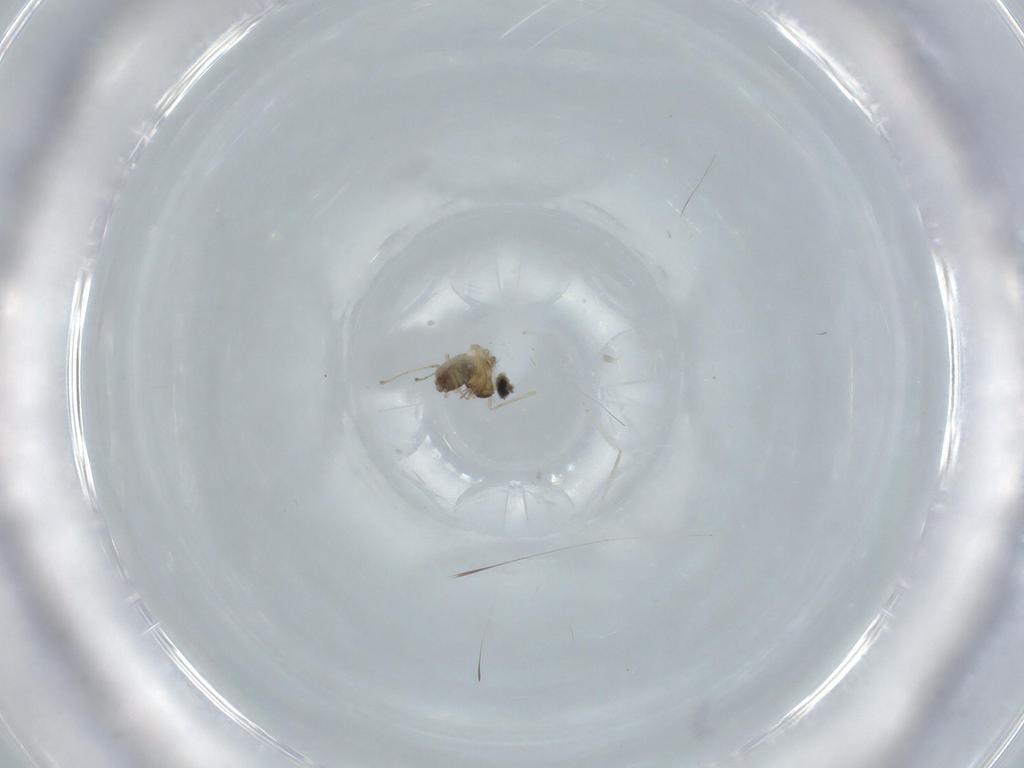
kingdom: Animalia
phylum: Arthropoda
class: Insecta
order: Diptera
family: Cecidomyiidae
